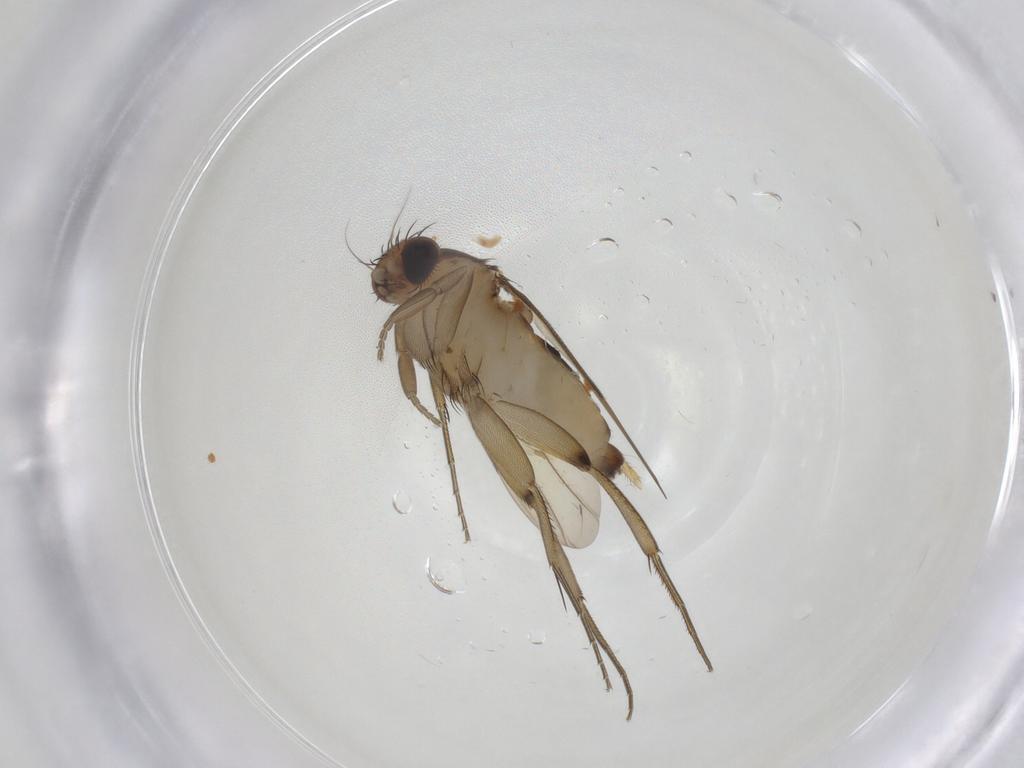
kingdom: Animalia
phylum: Arthropoda
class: Insecta
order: Diptera
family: Phoridae
